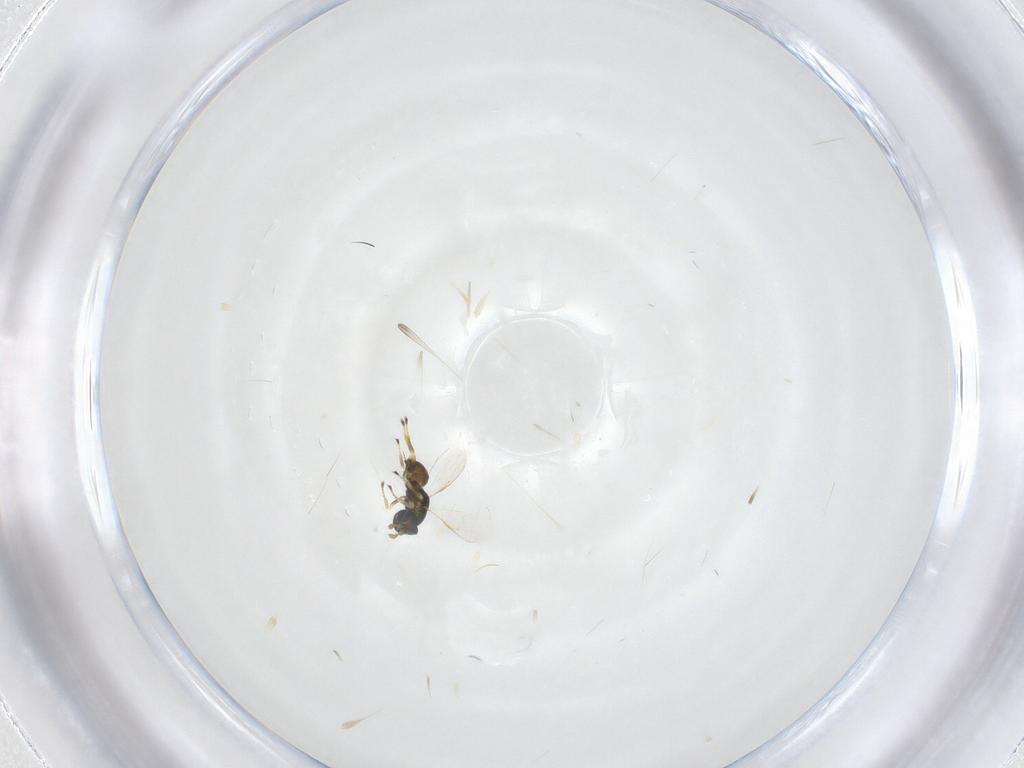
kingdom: Animalia
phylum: Arthropoda
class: Insecta
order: Hymenoptera
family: Eulophidae
